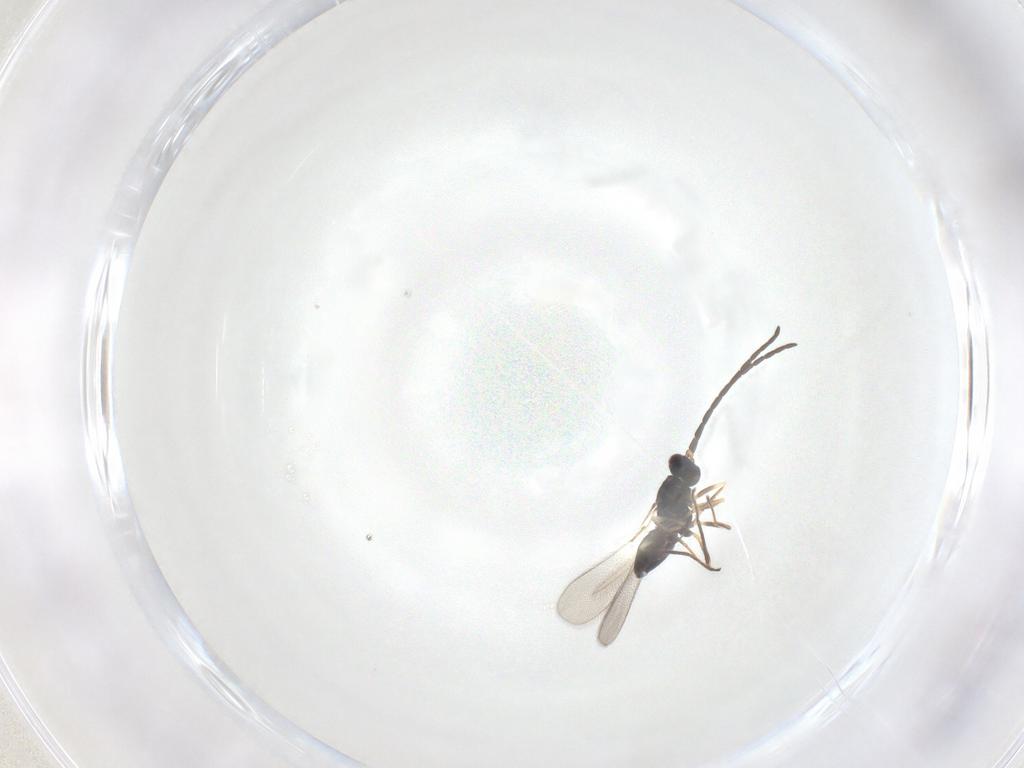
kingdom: Animalia
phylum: Arthropoda
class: Insecta
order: Hymenoptera
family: Mymaridae
